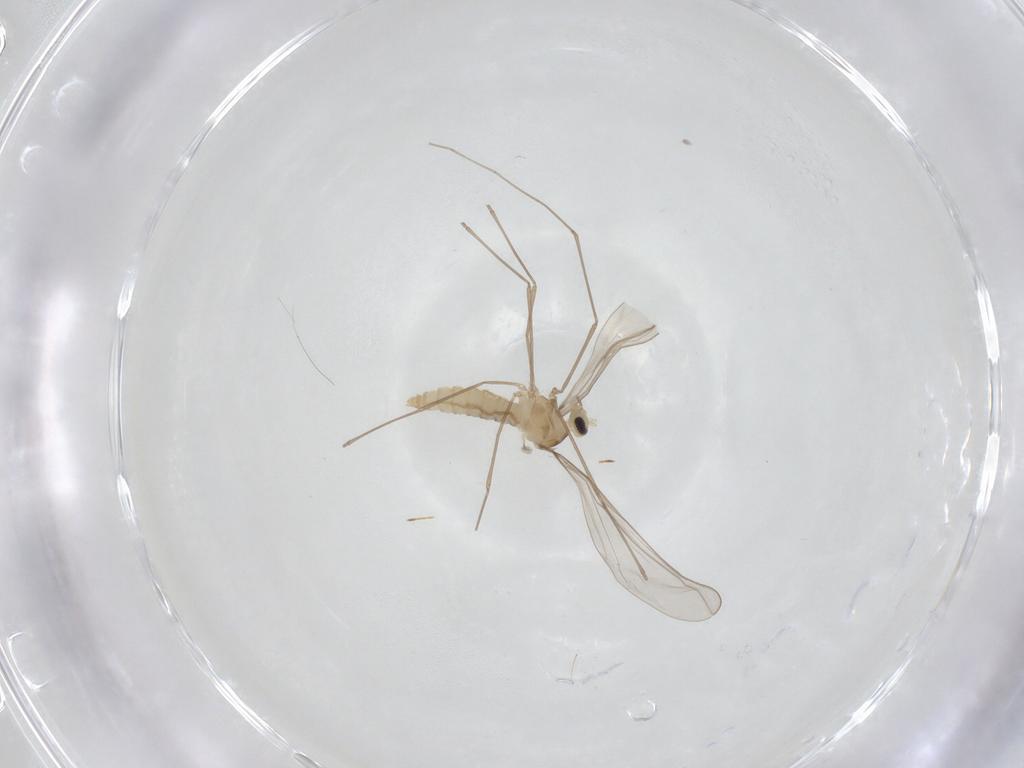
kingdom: Animalia
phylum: Arthropoda
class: Insecta
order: Diptera
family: Cecidomyiidae
